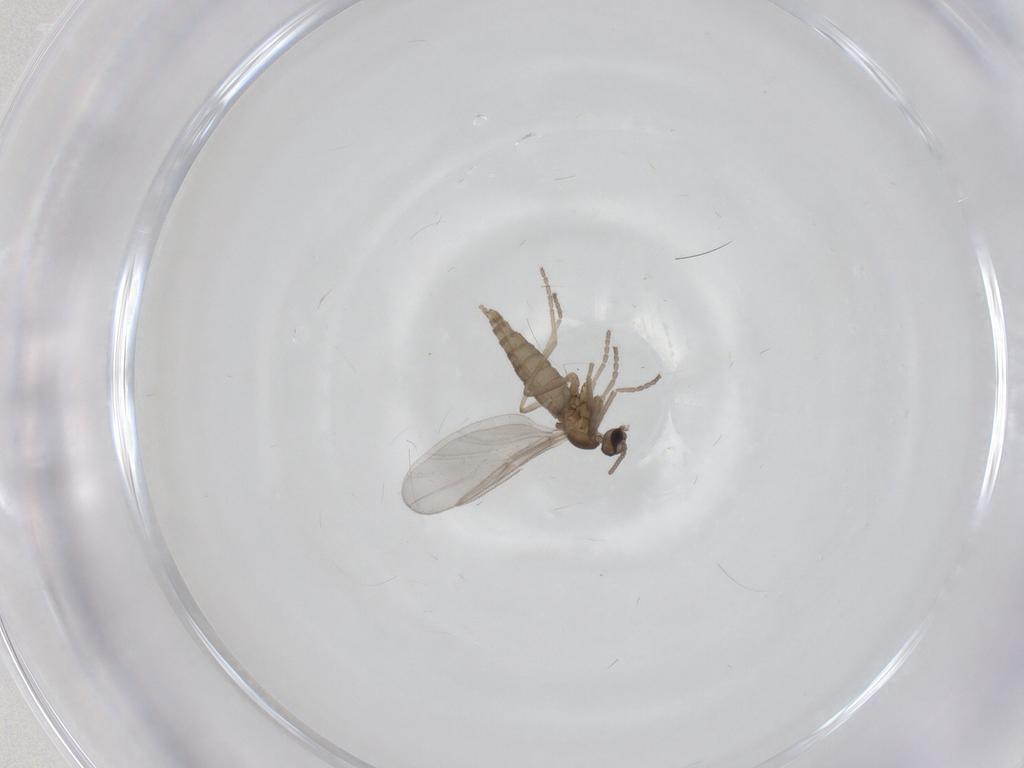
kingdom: Animalia
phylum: Arthropoda
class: Insecta
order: Diptera
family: Cecidomyiidae
